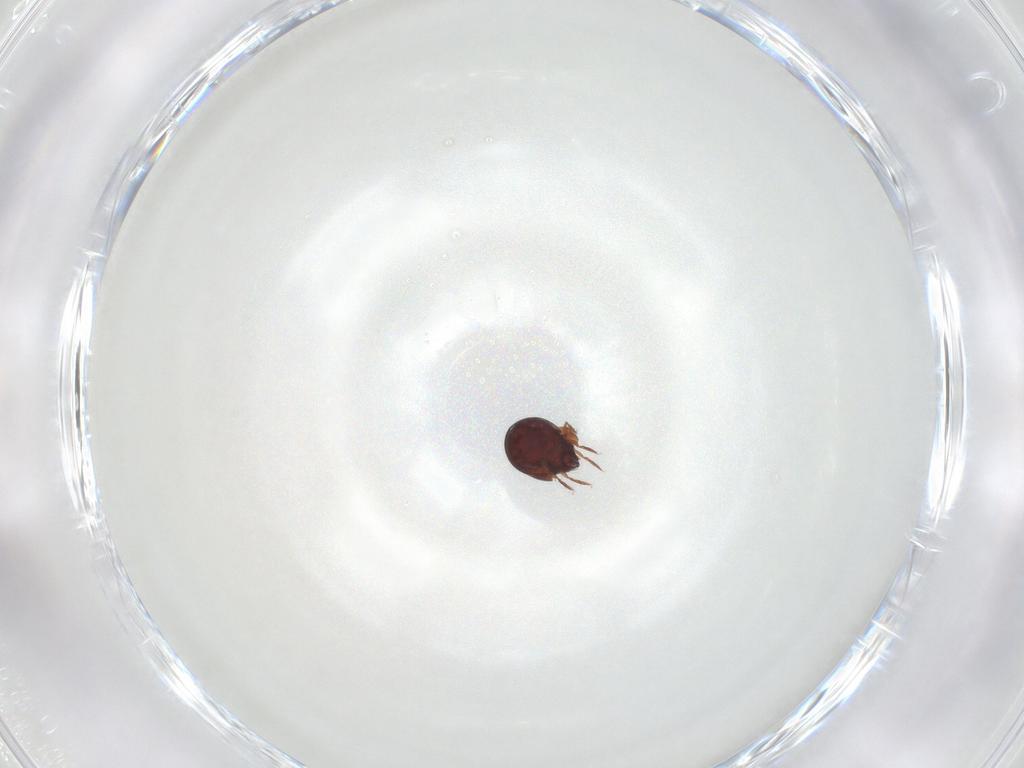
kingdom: Animalia
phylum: Arthropoda
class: Arachnida
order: Sarcoptiformes
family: Humerobatidae
